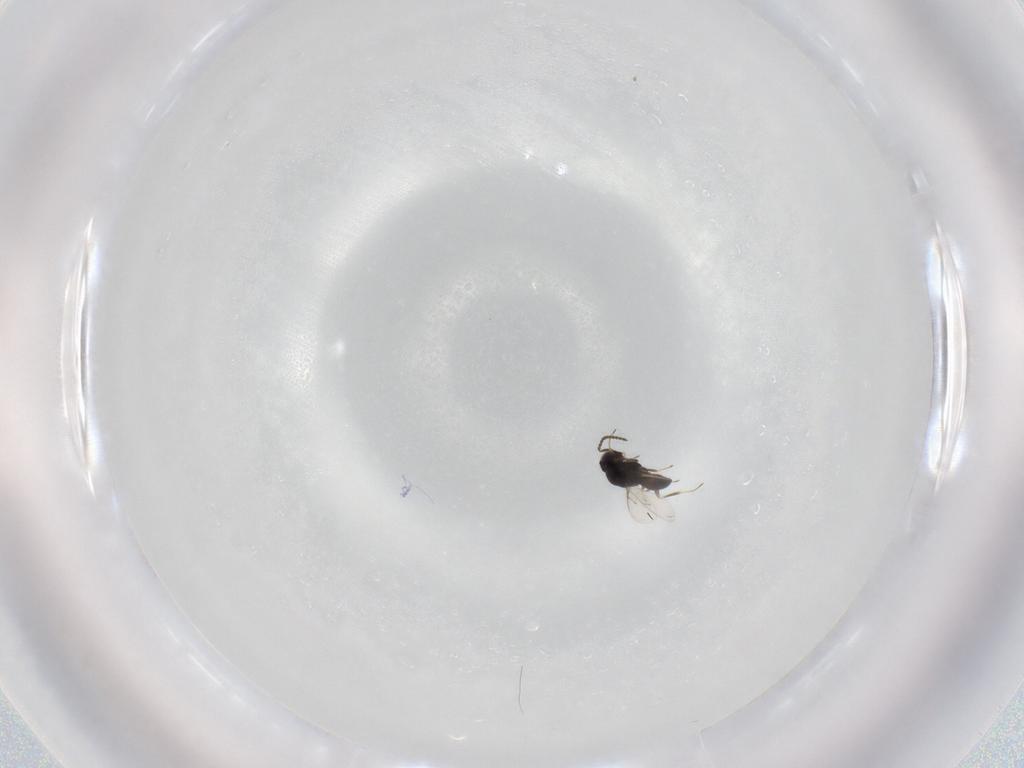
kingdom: Animalia
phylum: Arthropoda
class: Insecta
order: Hymenoptera
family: Scelionidae
